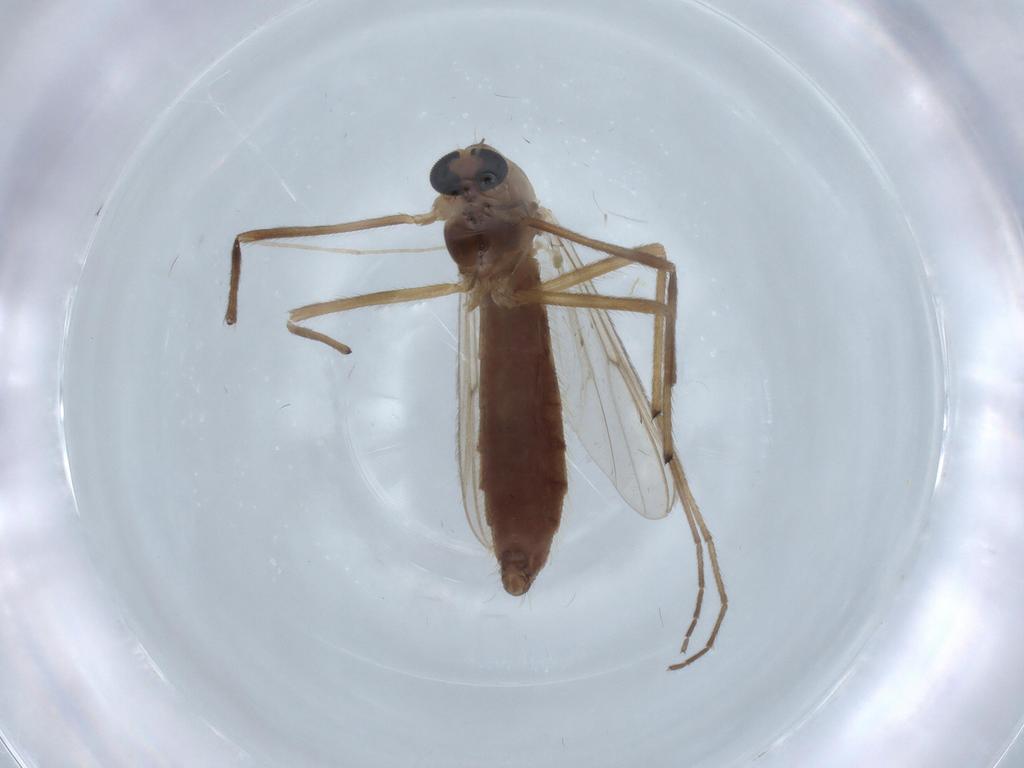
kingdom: Animalia
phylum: Arthropoda
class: Insecta
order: Diptera
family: Chironomidae
